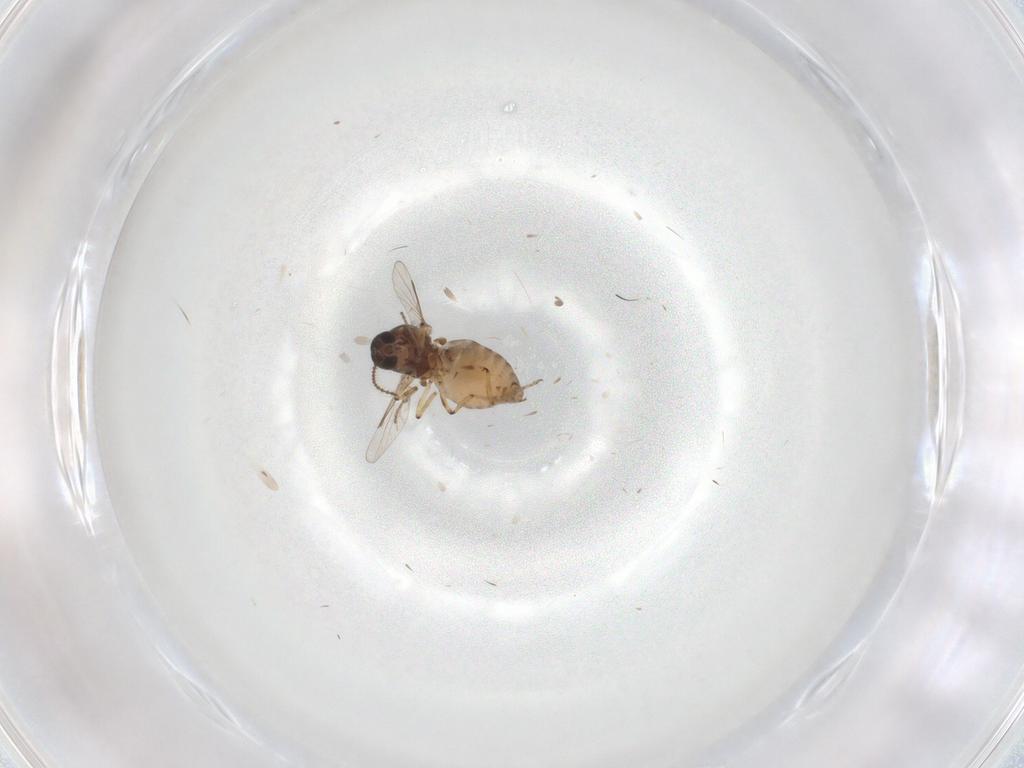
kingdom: Animalia
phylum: Arthropoda
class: Insecta
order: Diptera
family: Ceratopogonidae
